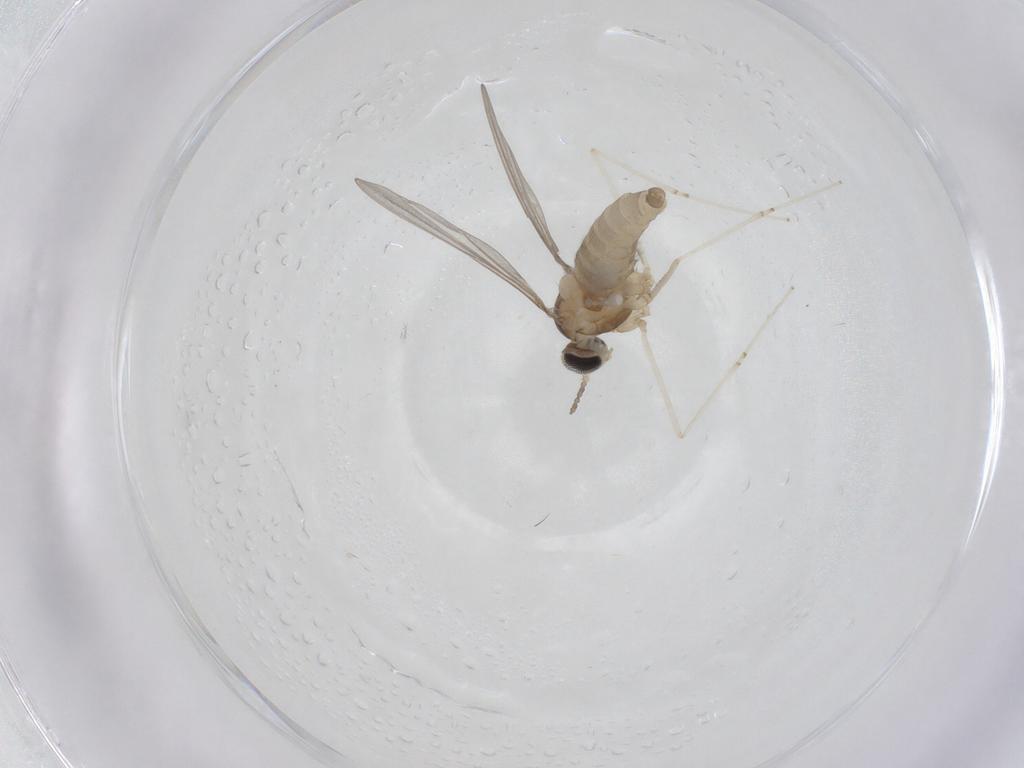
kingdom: Animalia
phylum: Arthropoda
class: Insecta
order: Diptera
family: Cecidomyiidae
